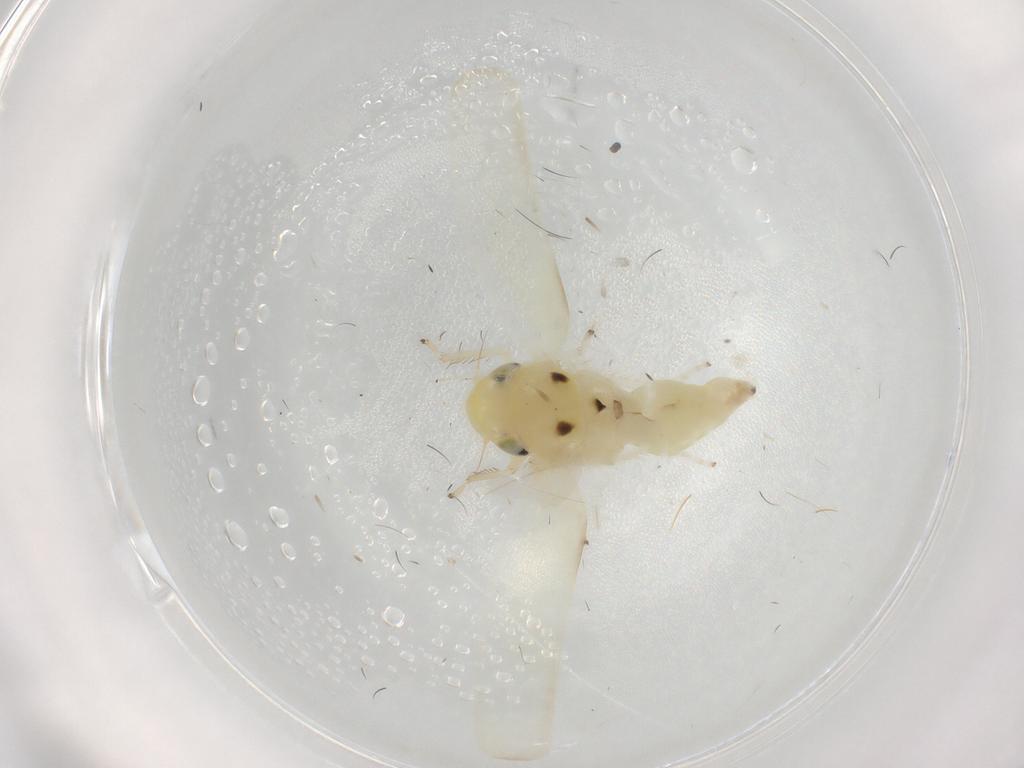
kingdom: Animalia
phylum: Arthropoda
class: Insecta
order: Hemiptera
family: Cicadellidae
